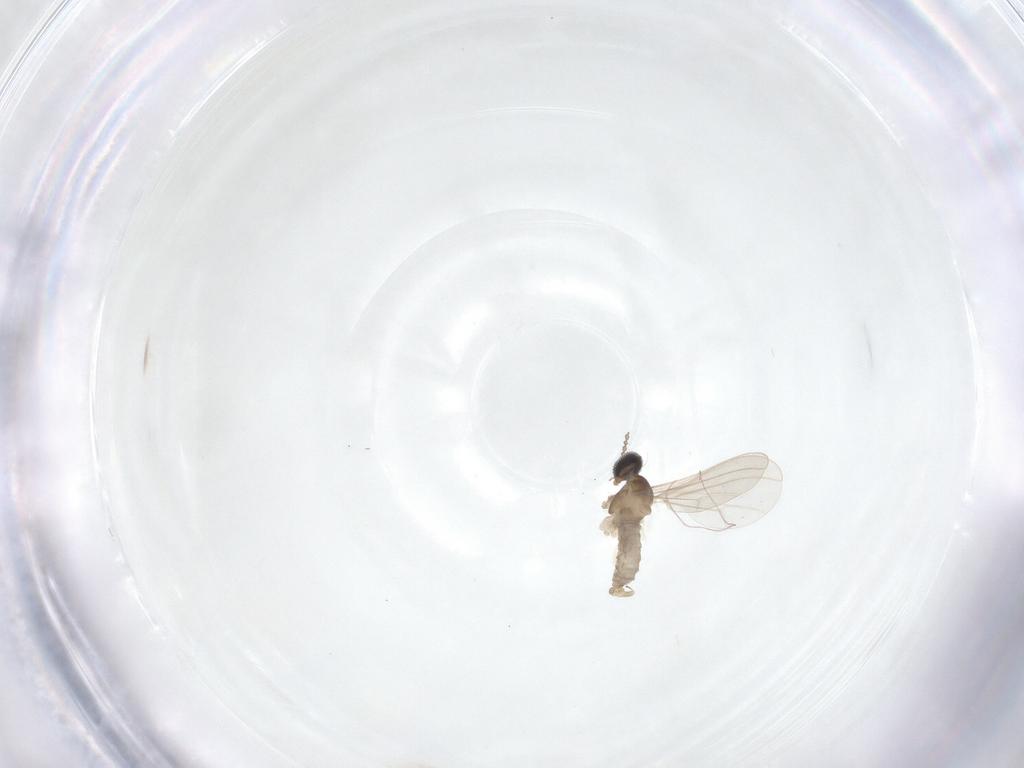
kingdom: Animalia
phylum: Arthropoda
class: Insecta
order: Diptera
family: Cecidomyiidae
